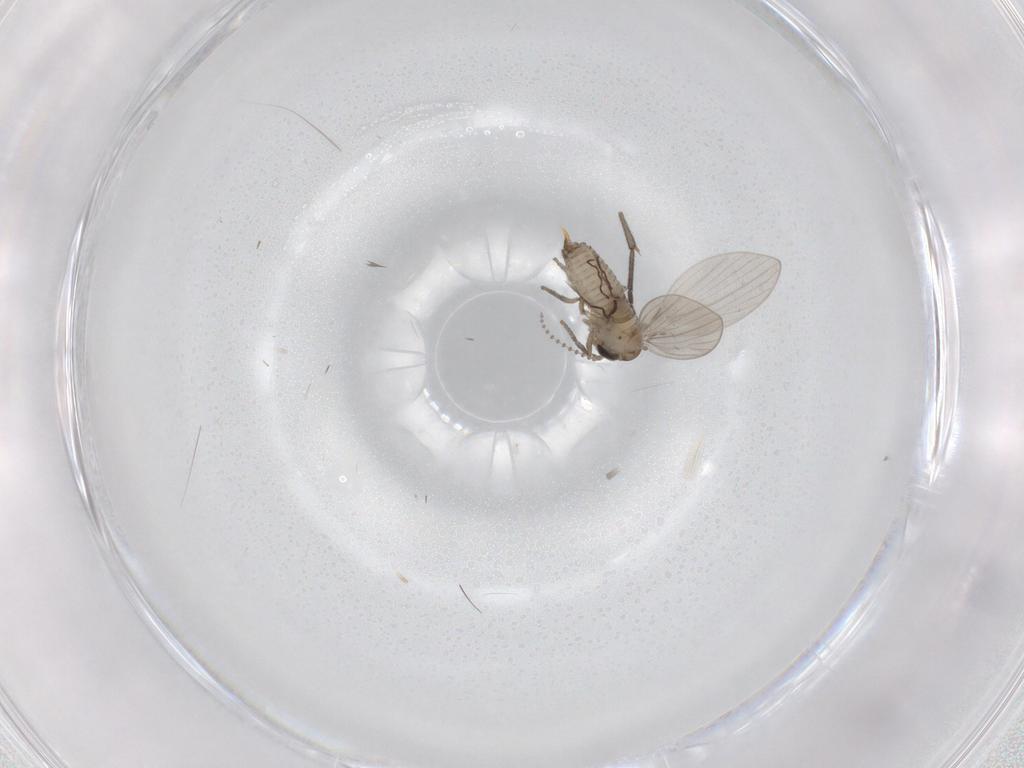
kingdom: Animalia
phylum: Arthropoda
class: Insecta
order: Diptera
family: Psychodidae
